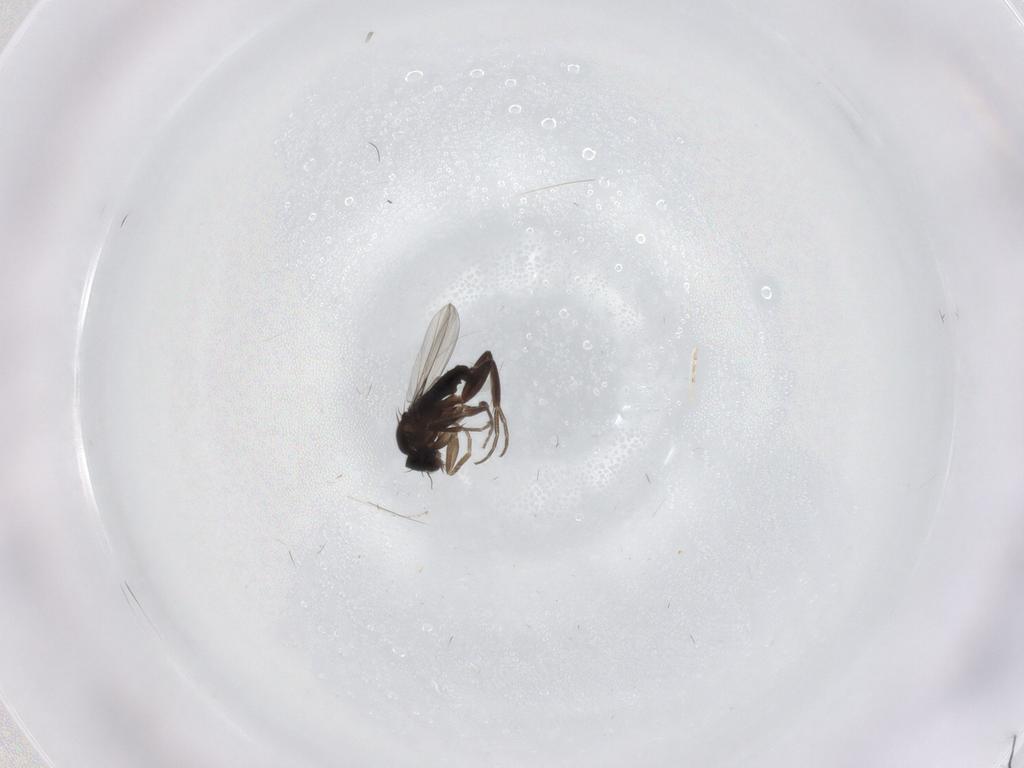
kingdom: Animalia
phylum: Arthropoda
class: Insecta
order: Diptera
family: Phoridae
